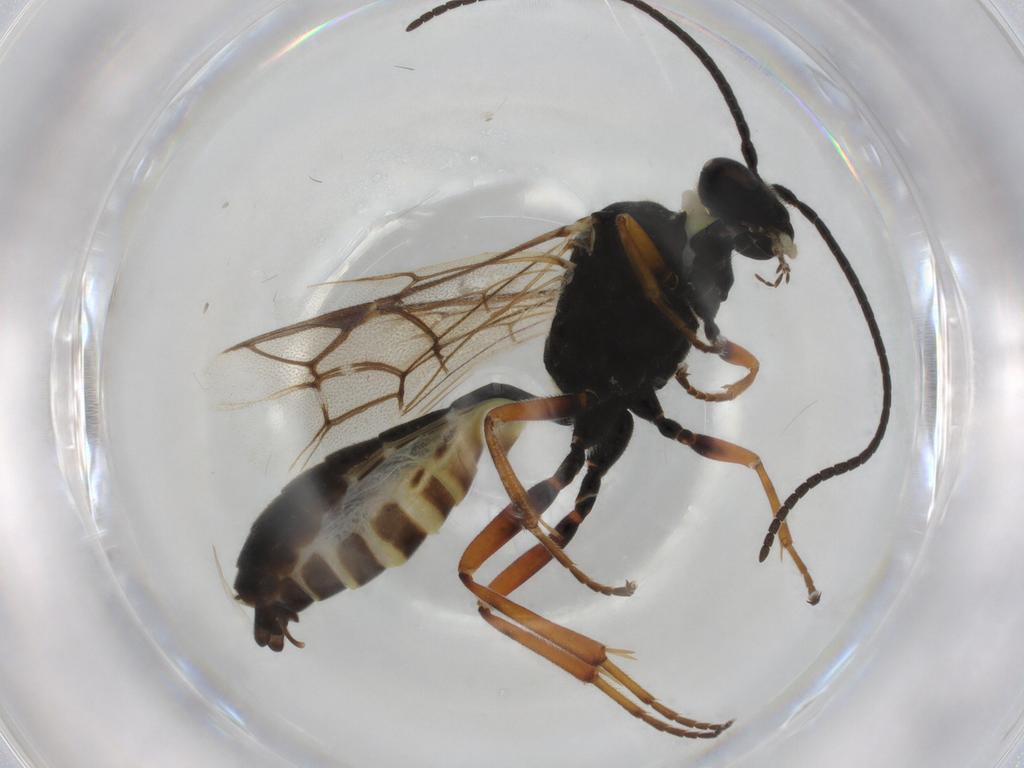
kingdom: Animalia
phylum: Arthropoda
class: Insecta
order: Hymenoptera
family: Ichneumonidae
